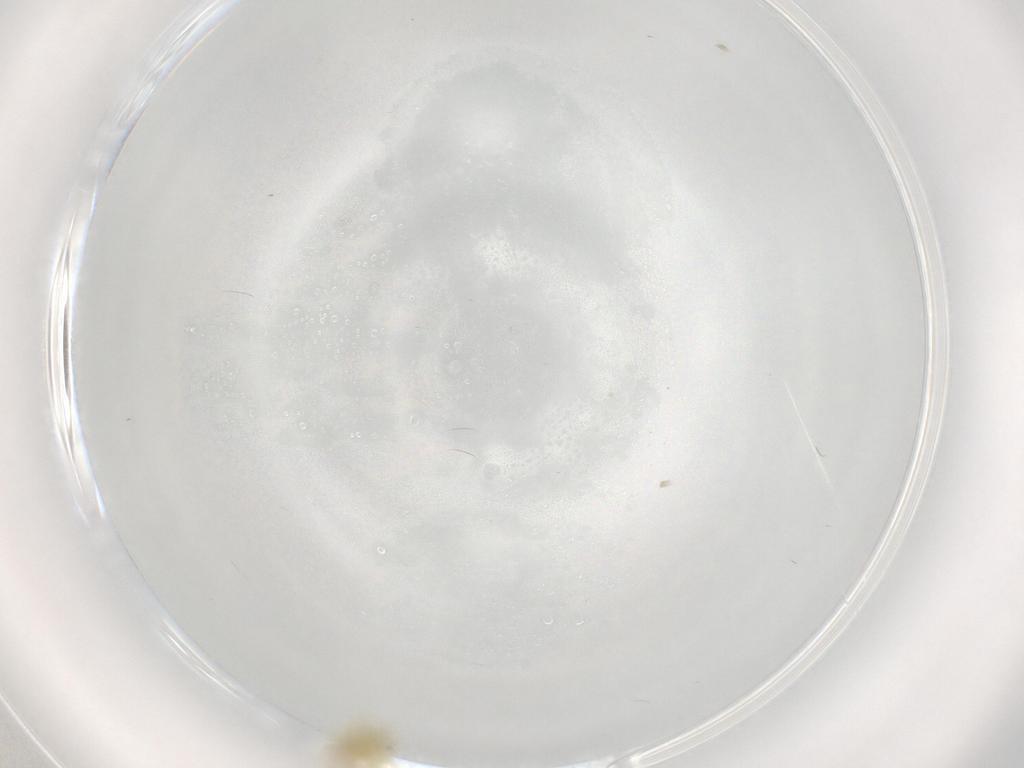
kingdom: Animalia
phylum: Arthropoda
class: Insecta
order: Hemiptera
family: Aleyrodidae
